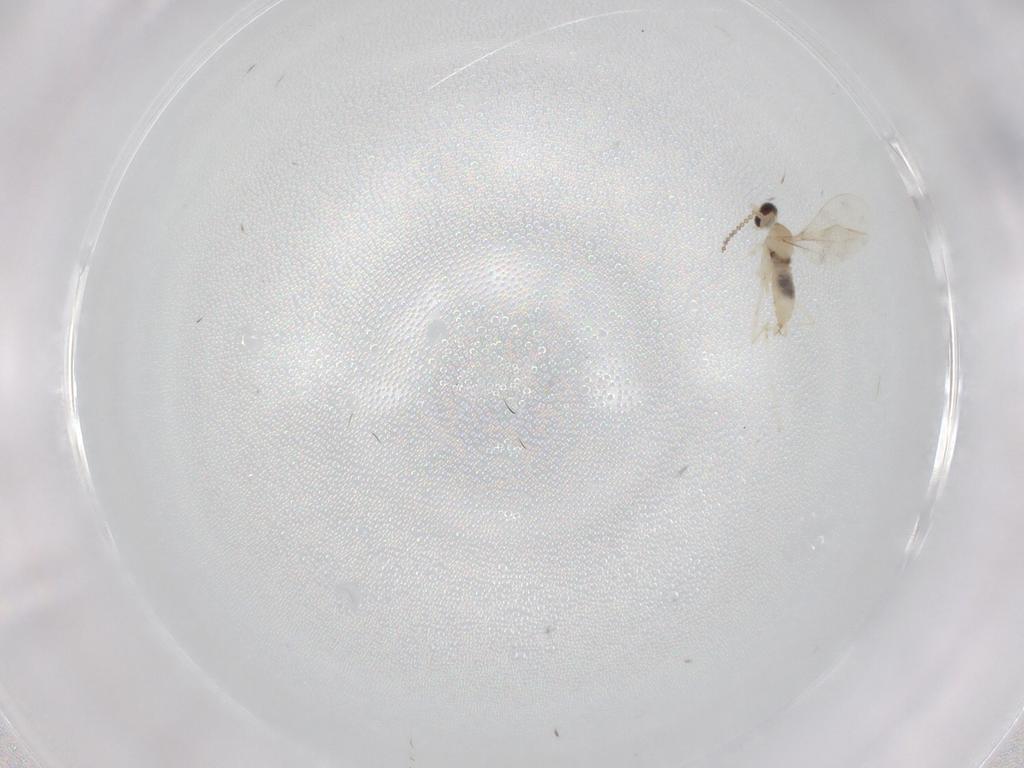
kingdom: Animalia
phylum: Arthropoda
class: Insecta
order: Diptera
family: Cecidomyiidae
